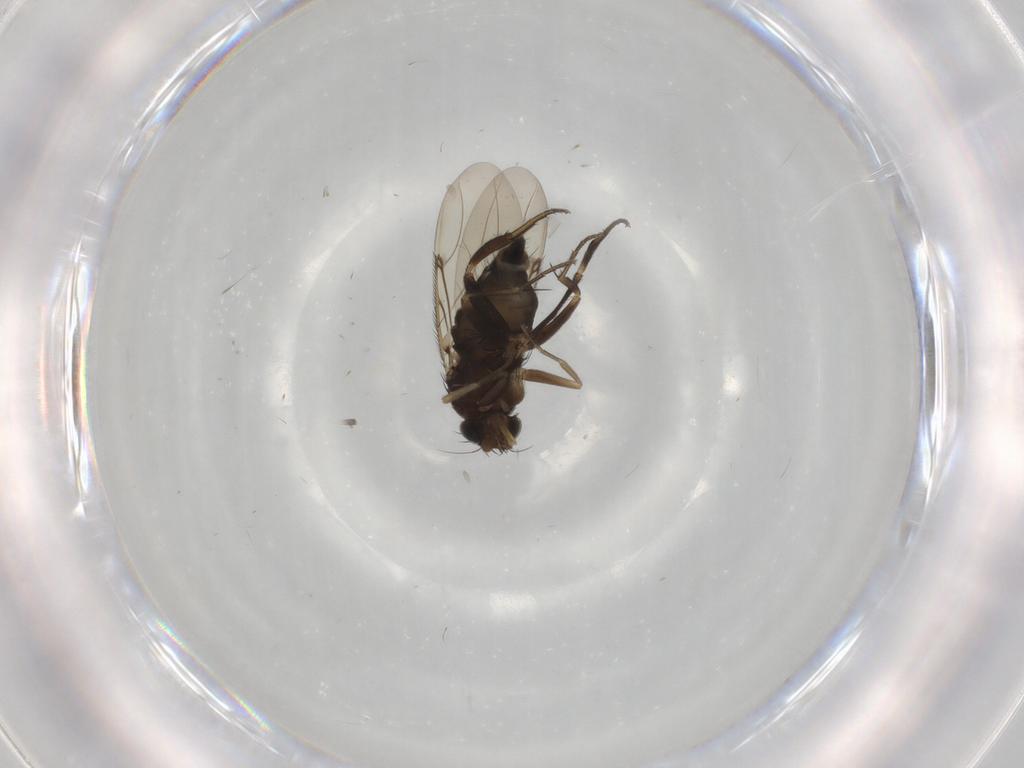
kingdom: Animalia
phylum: Arthropoda
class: Insecta
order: Diptera
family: Phoridae
